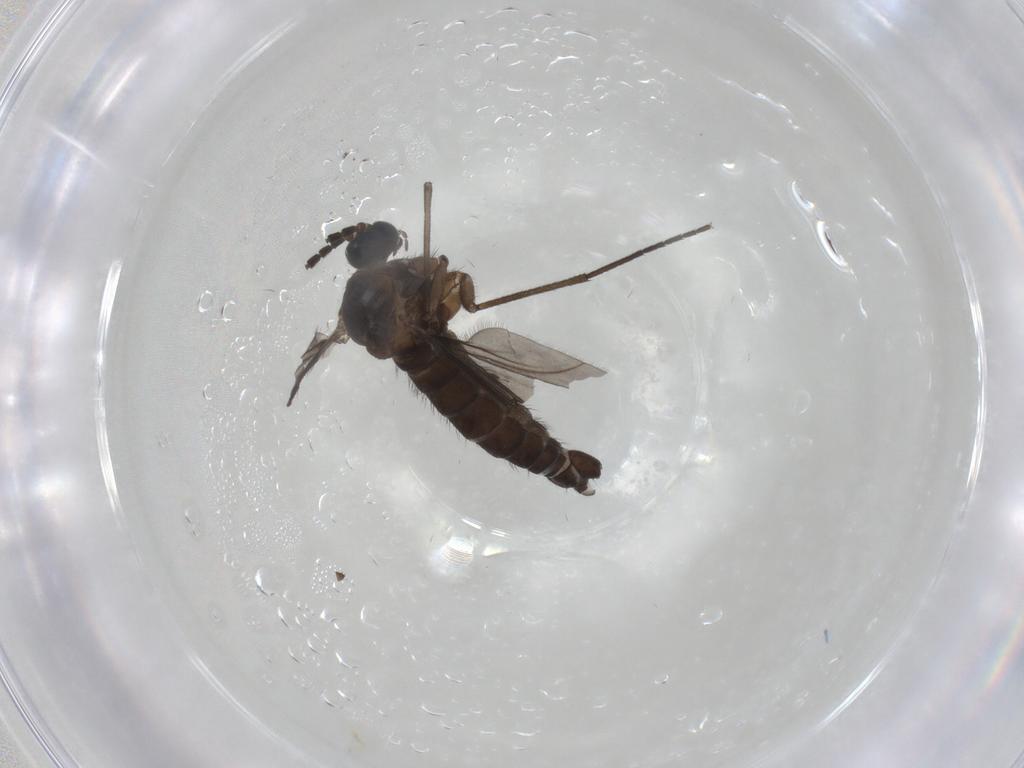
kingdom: Animalia
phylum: Arthropoda
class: Insecta
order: Diptera
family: Sciaridae
